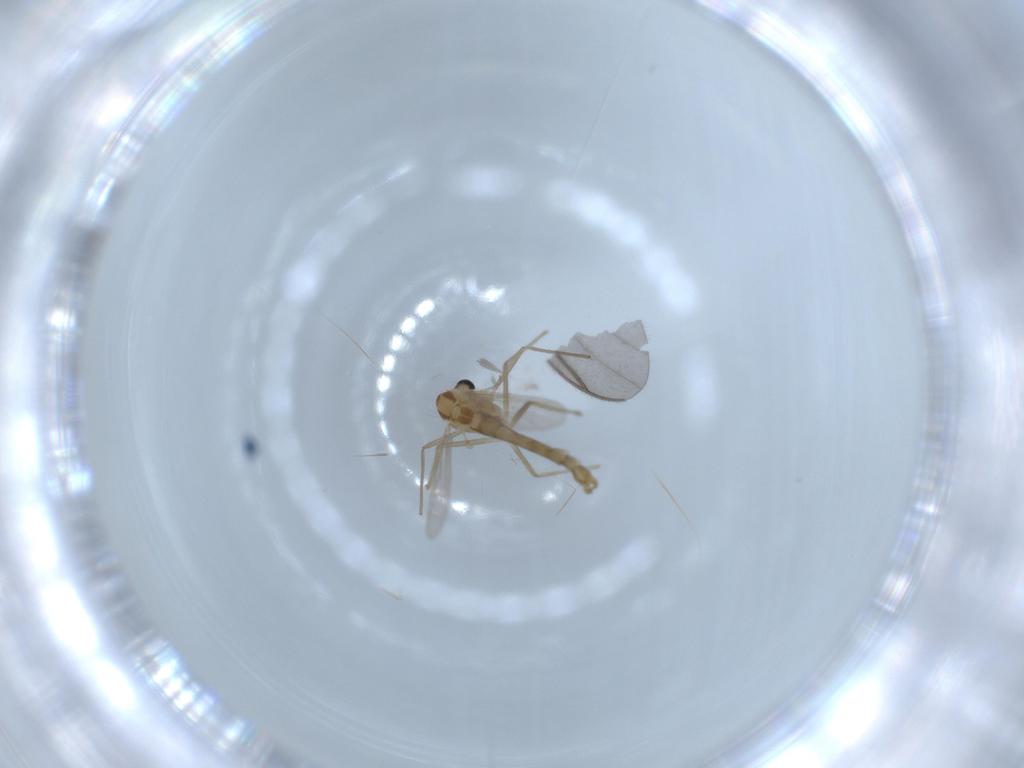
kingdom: Animalia
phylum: Arthropoda
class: Insecta
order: Diptera
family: Chironomidae
